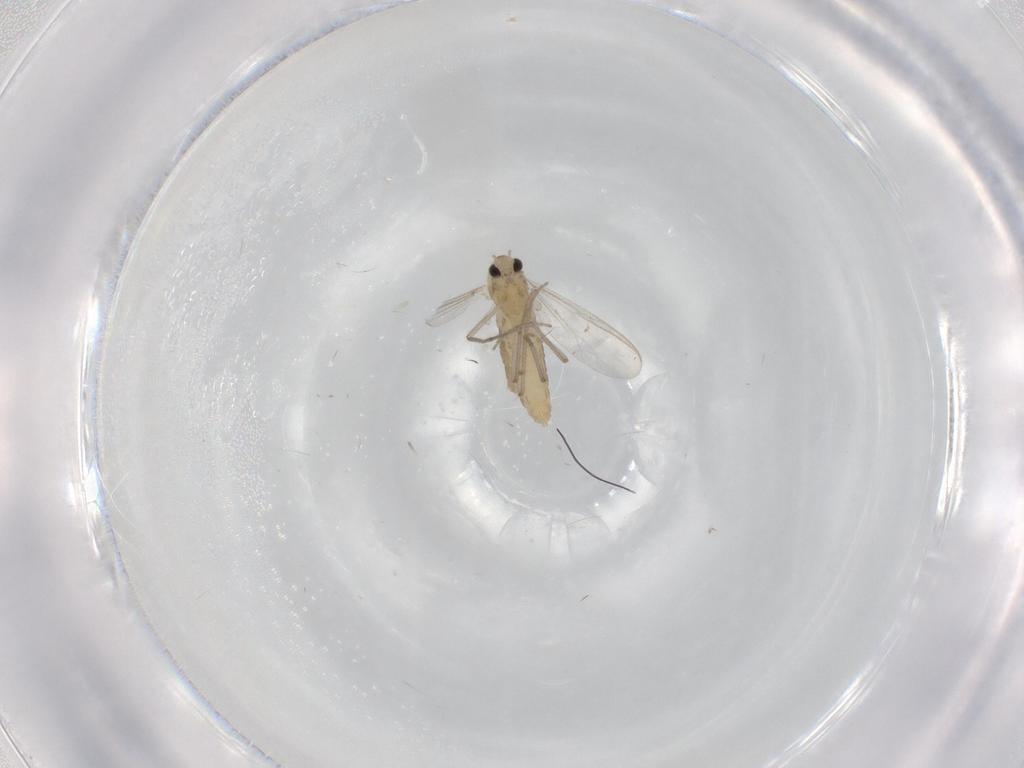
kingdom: Animalia
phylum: Arthropoda
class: Insecta
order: Diptera
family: Chironomidae
